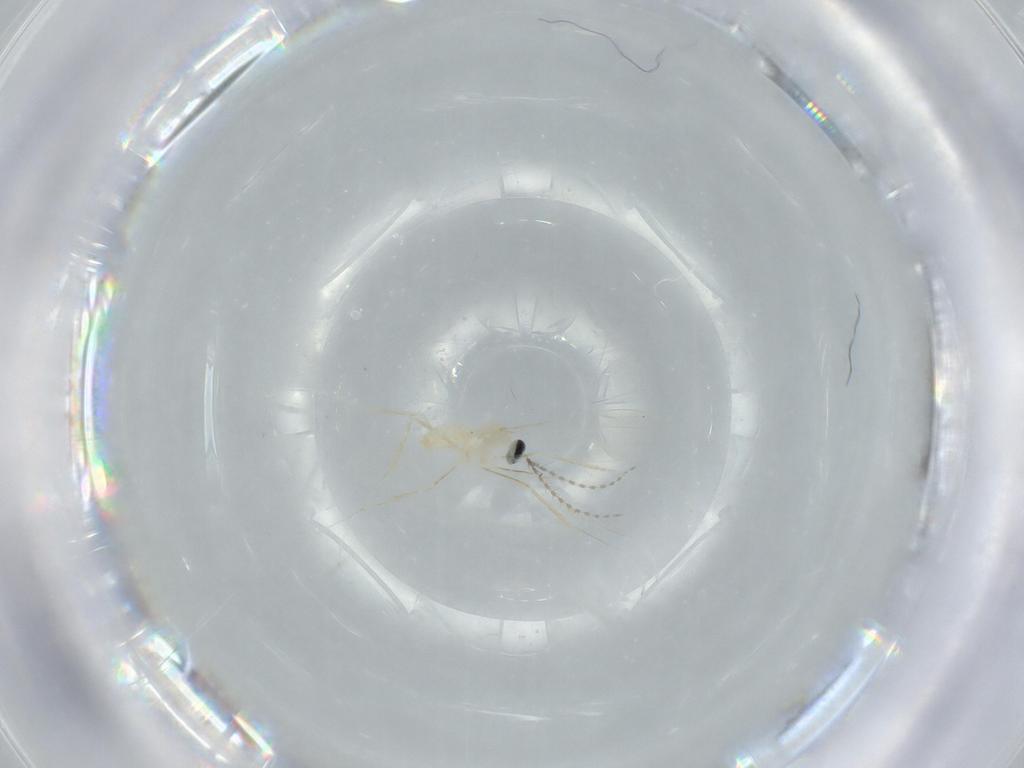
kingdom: Animalia
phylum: Arthropoda
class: Insecta
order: Diptera
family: Cecidomyiidae
